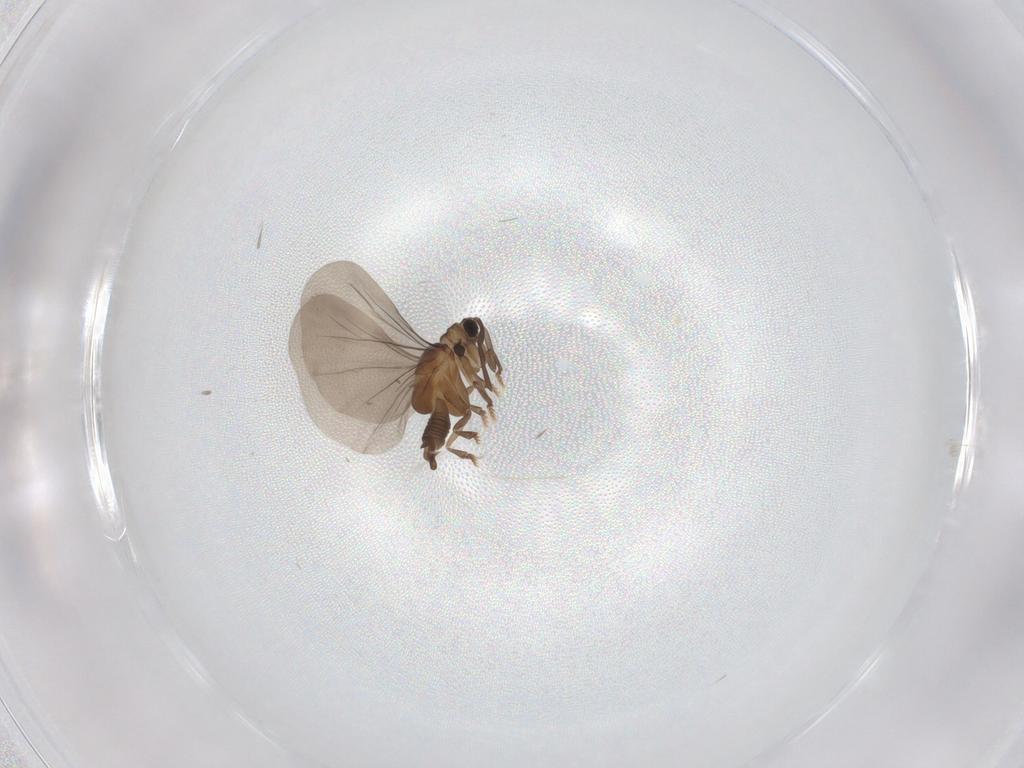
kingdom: Animalia
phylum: Arthropoda
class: Insecta
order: Strepsiptera
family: Myrmecolacidae
